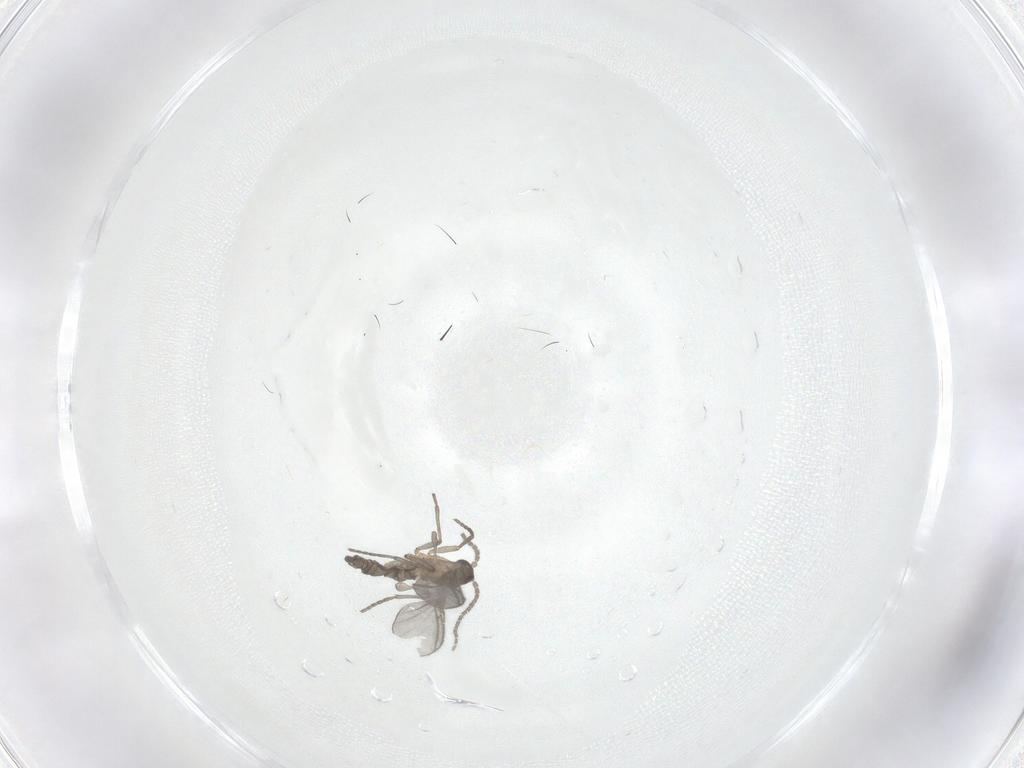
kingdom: Animalia
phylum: Arthropoda
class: Insecta
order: Diptera
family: Sciaridae
